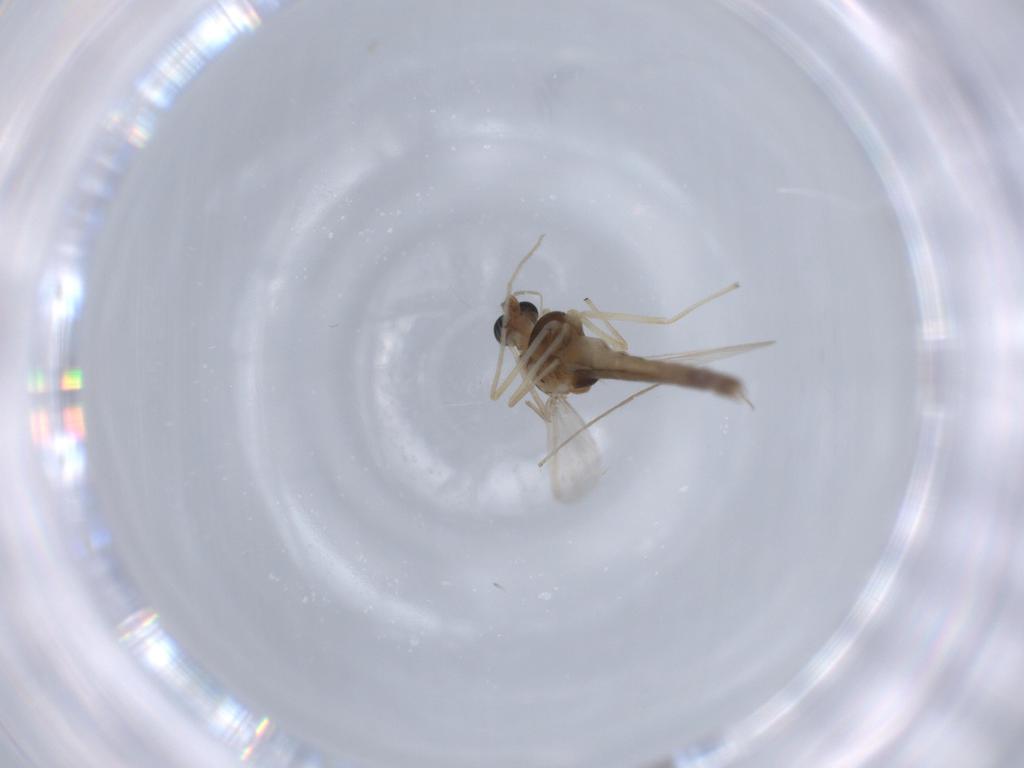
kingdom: Animalia
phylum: Arthropoda
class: Insecta
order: Diptera
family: Chironomidae
